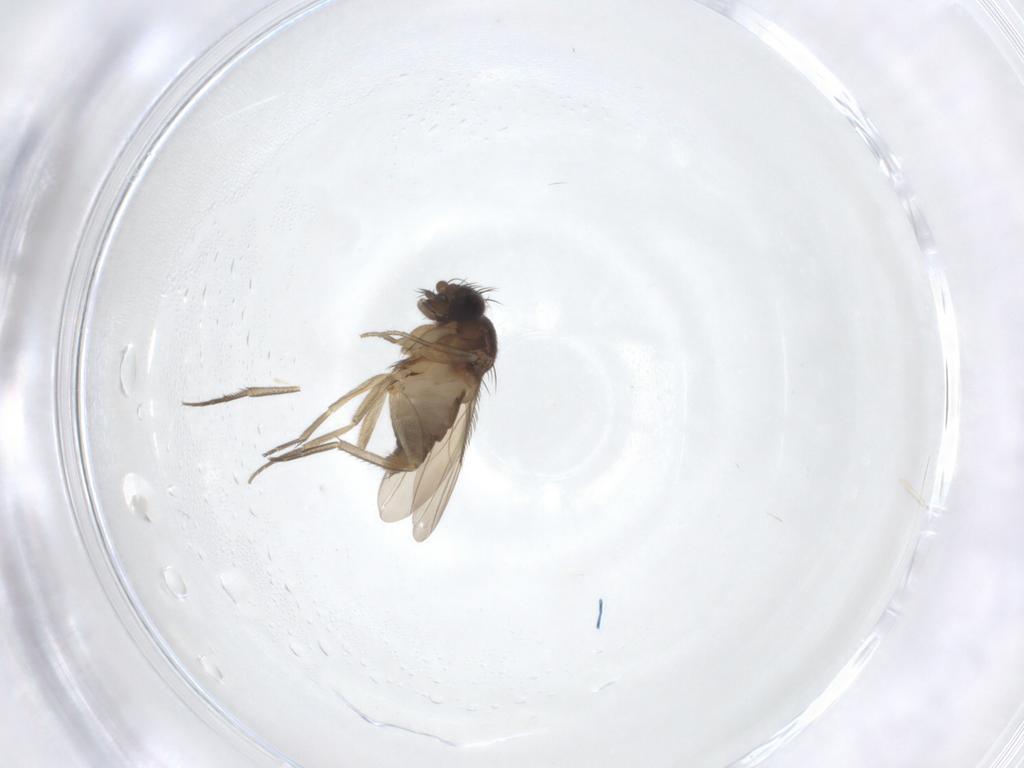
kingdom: Animalia
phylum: Arthropoda
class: Insecta
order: Diptera
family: Phoridae
